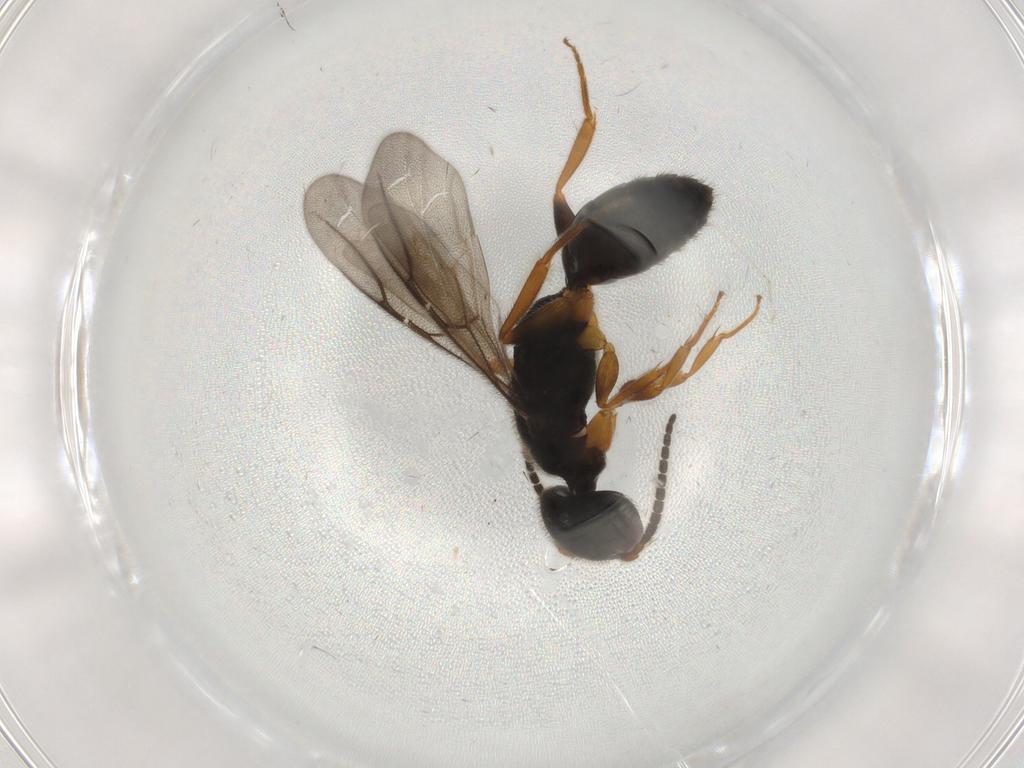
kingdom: Animalia
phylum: Arthropoda
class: Insecta
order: Hymenoptera
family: Bethylidae
